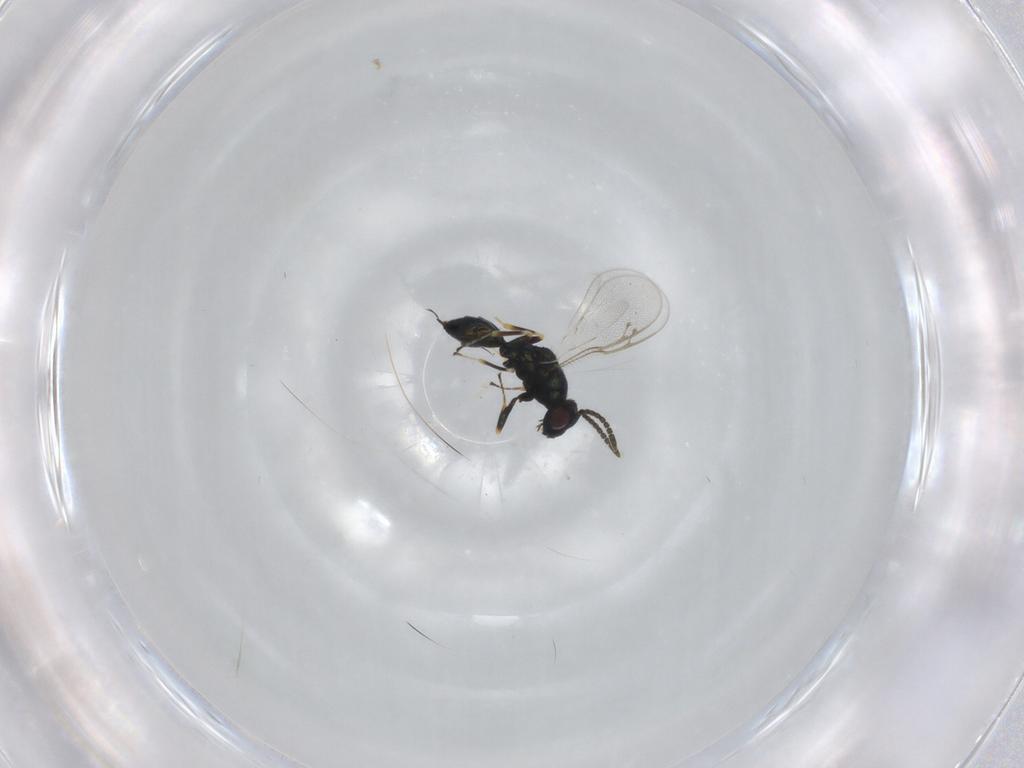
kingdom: Animalia
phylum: Arthropoda
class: Insecta
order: Hymenoptera
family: Pteromalidae
